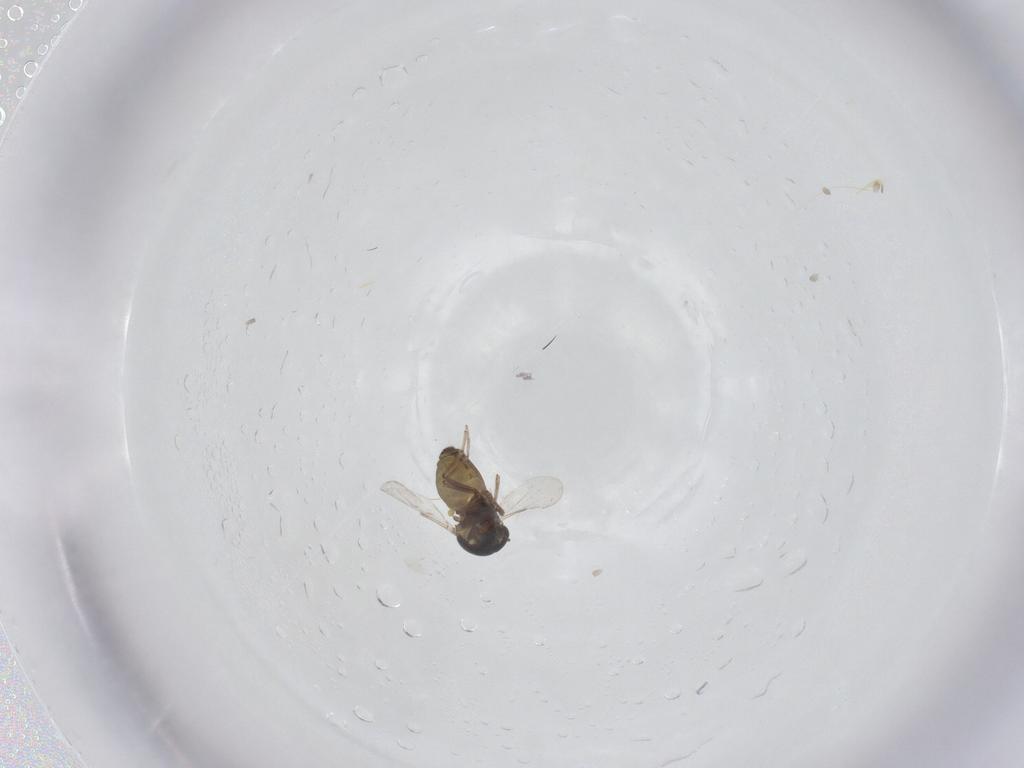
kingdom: Animalia
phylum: Arthropoda
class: Insecta
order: Diptera
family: Ceratopogonidae
